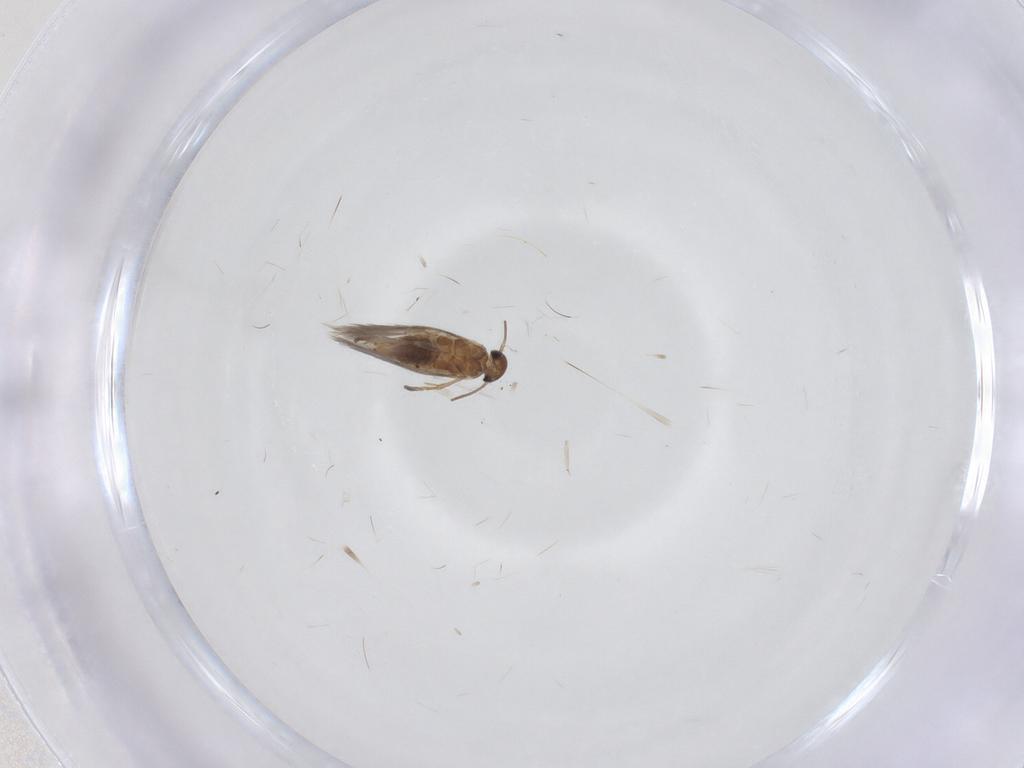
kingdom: Animalia
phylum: Arthropoda
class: Insecta
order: Lepidoptera
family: Heliozelidae
